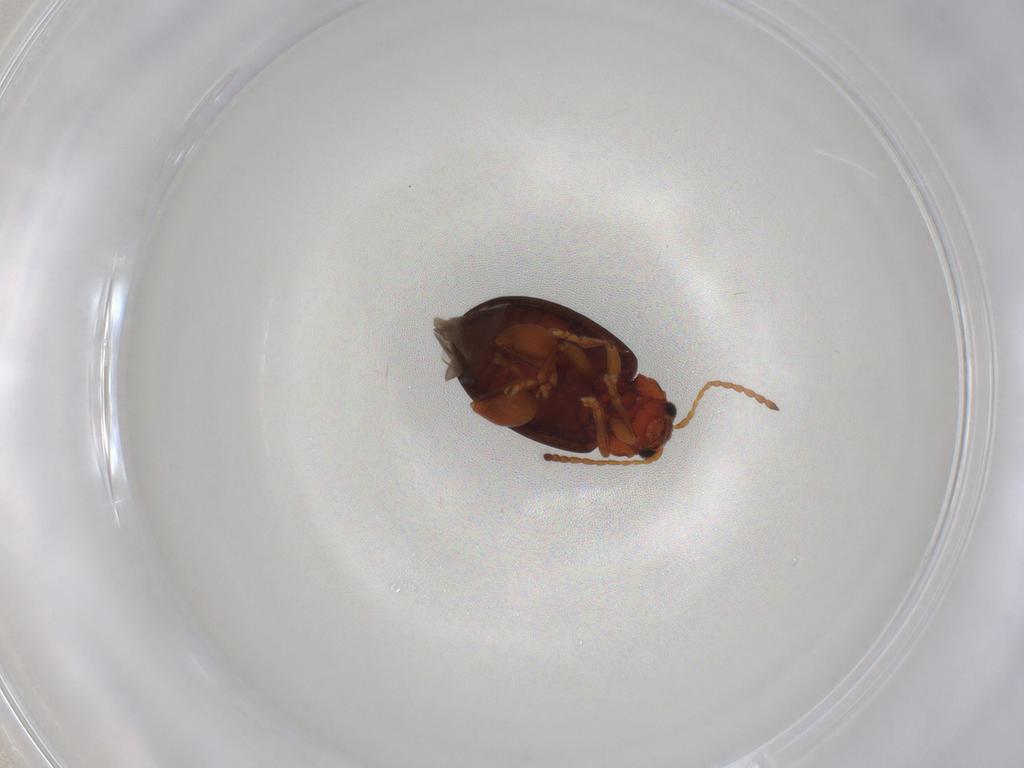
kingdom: Animalia
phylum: Arthropoda
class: Insecta
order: Coleoptera
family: Chrysomelidae
